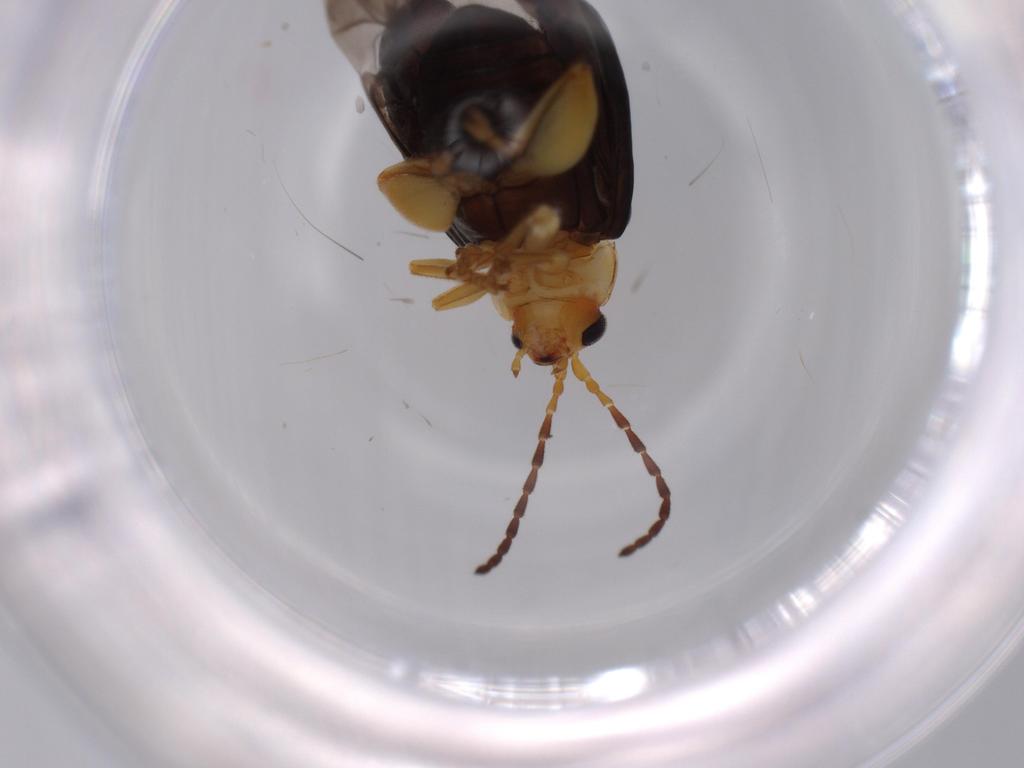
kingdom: Animalia
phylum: Arthropoda
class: Insecta
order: Coleoptera
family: Chrysomelidae
